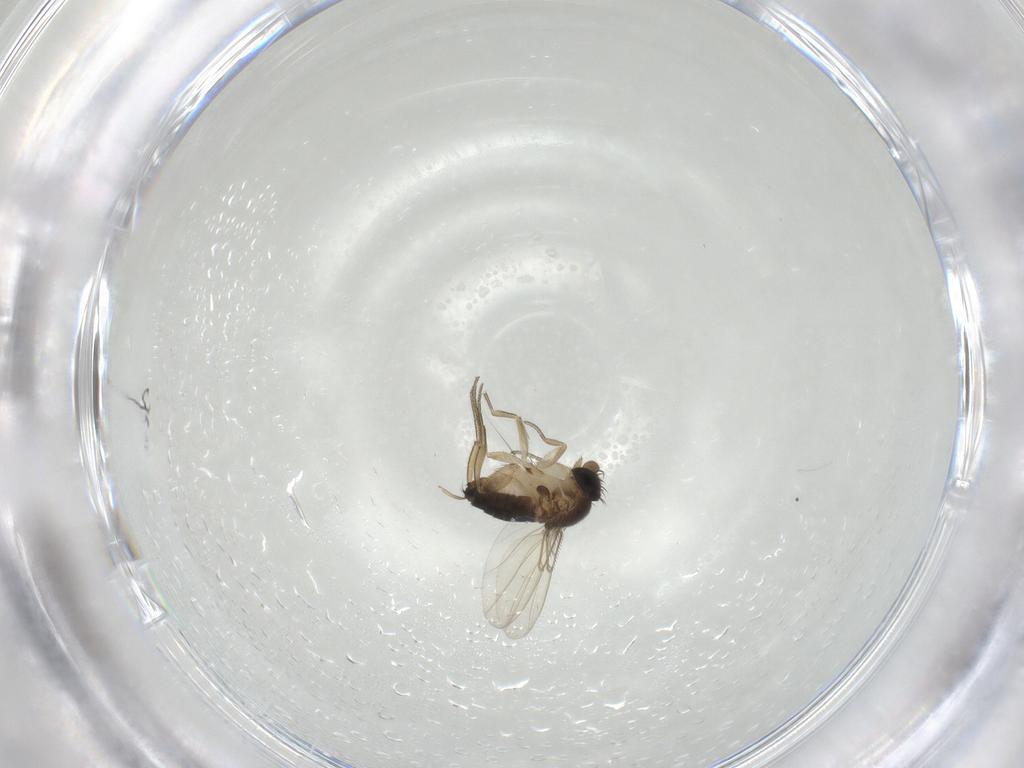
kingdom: Animalia
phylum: Arthropoda
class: Insecta
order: Diptera
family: Phoridae
